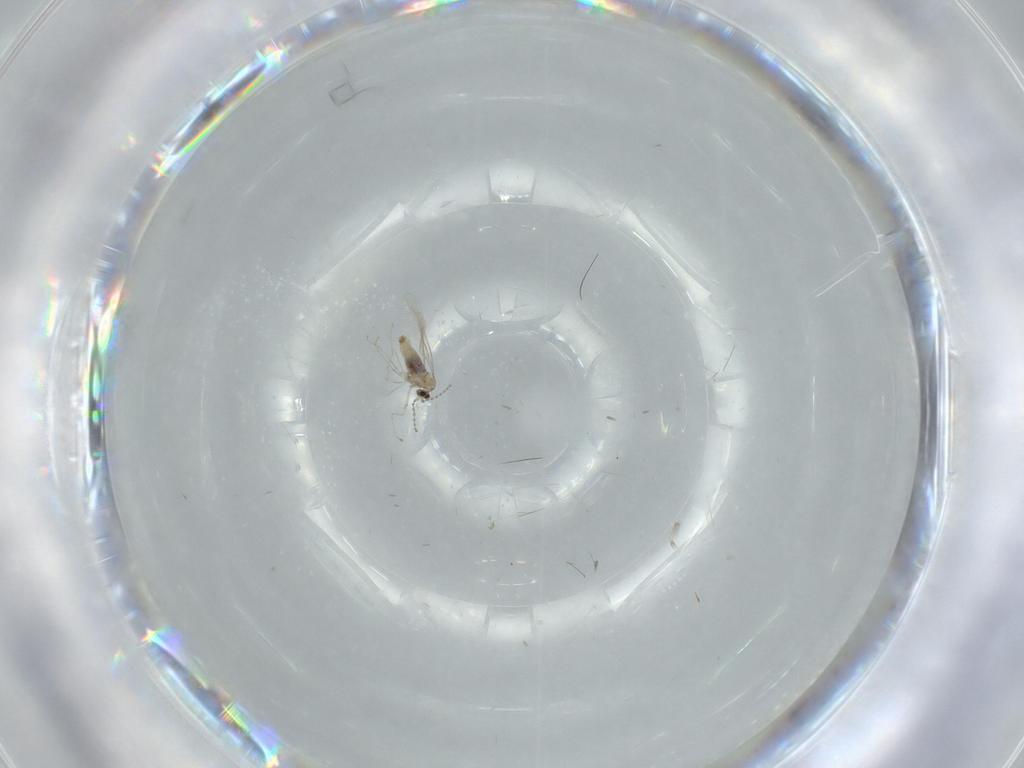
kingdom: Animalia
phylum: Arthropoda
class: Insecta
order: Diptera
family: Cecidomyiidae
